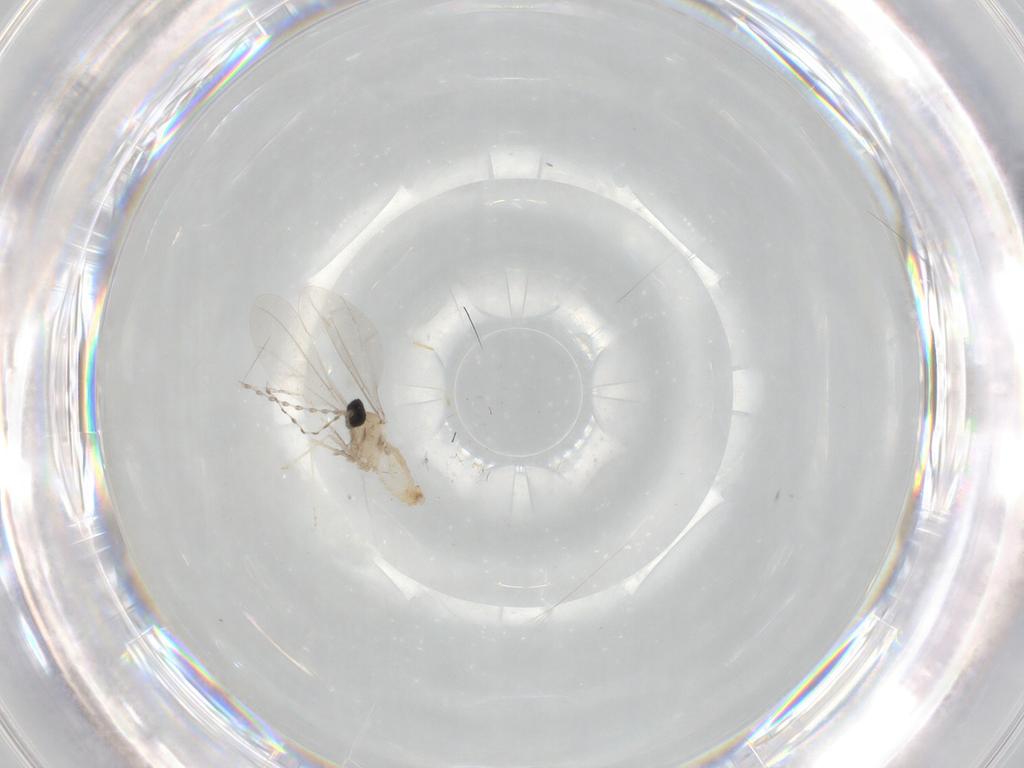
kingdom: Animalia
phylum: Arthropoda
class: Insecta
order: Diptera
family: Cecidomyiidae
